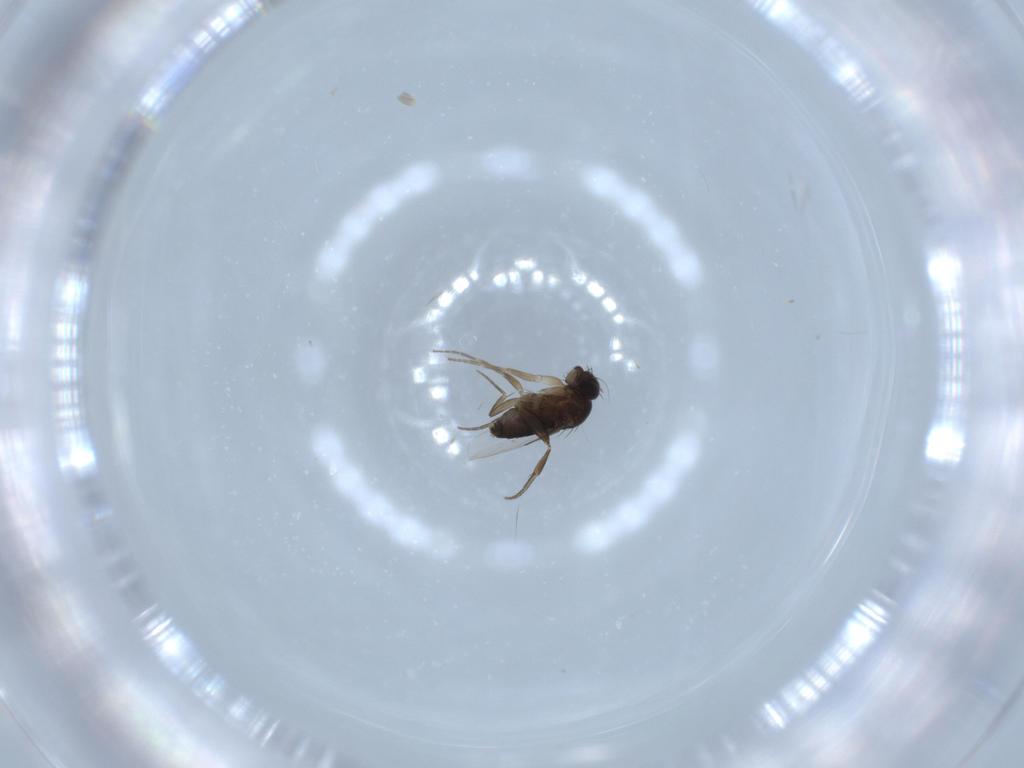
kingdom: Animalia
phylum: Arthropoda
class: Insecta
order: Diptera
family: Phoridae
